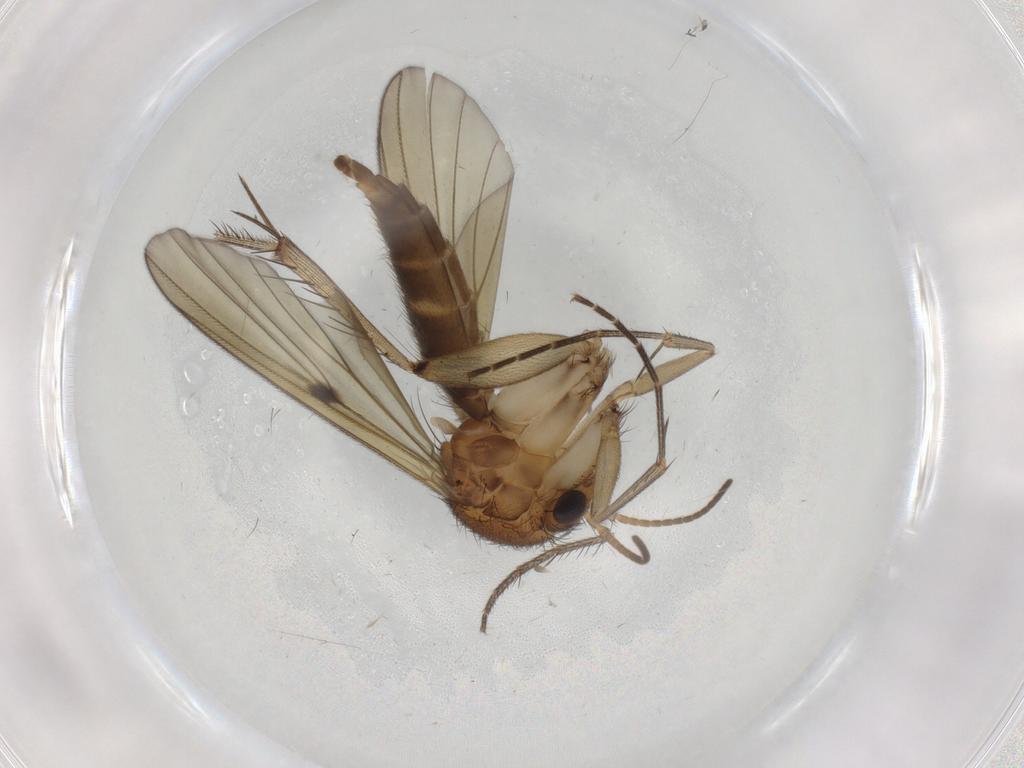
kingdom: Animalia
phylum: Arthropoda
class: Insecta
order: Diptera
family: Mycetophilidae
